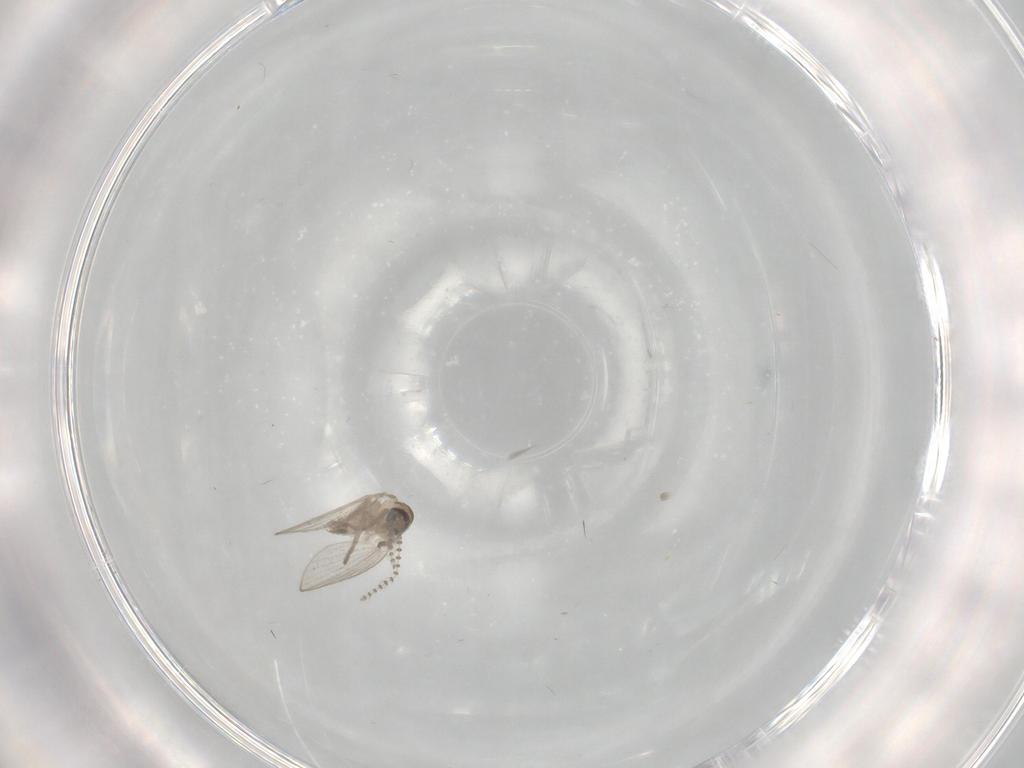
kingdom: Animalia
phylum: Arthropoda
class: Insecta
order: Diptera
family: Psychodidae
